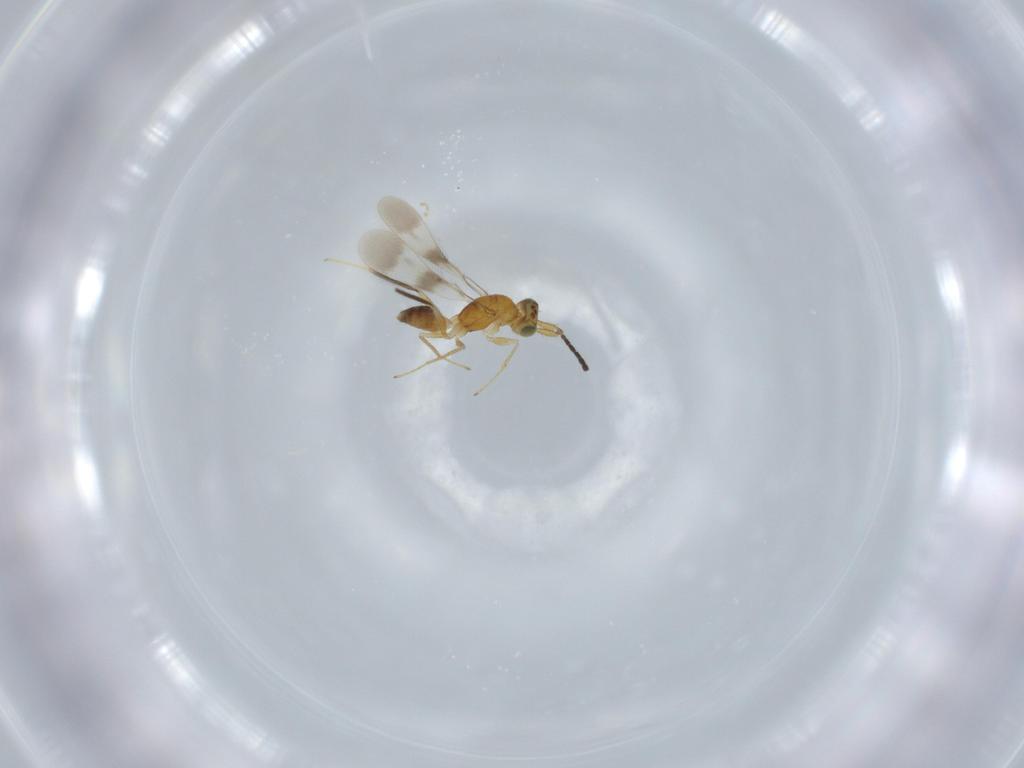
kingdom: Animalia
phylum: Arthropoda
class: Insecta
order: Hymenoptera
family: Mymaridae
